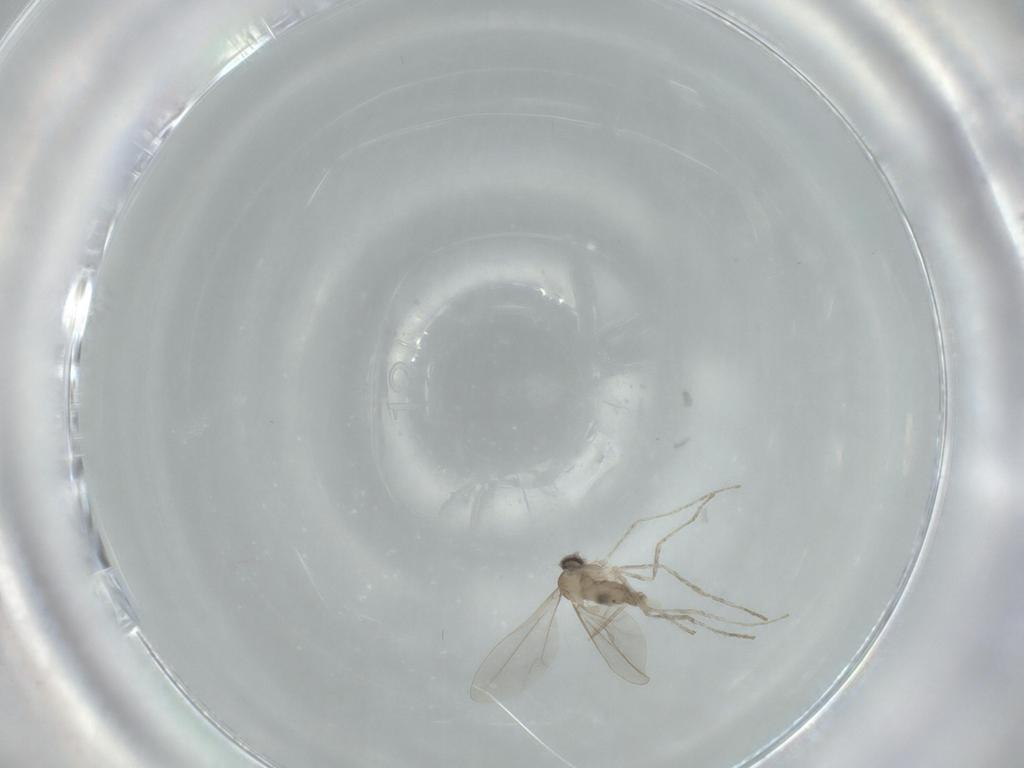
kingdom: Animalia
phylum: Arthropoda
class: Insecta
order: Diptera
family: Cecidomyiidae
